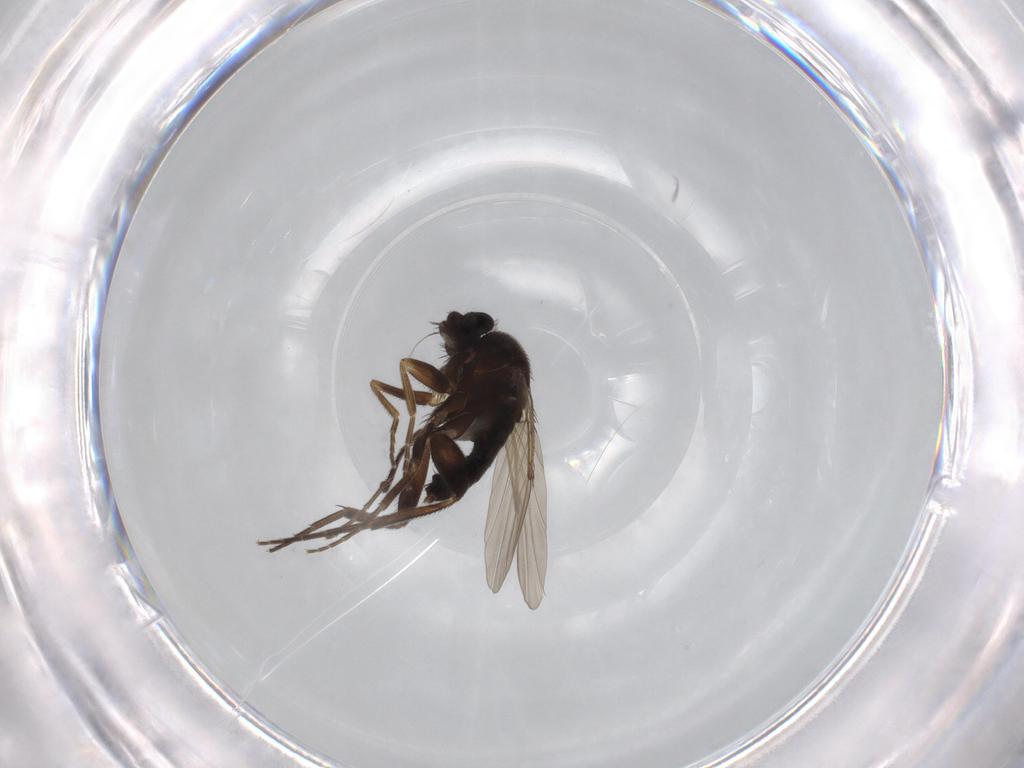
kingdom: Animalia
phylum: Arthropoda
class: Insecta
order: Diptera
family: Phoridae
